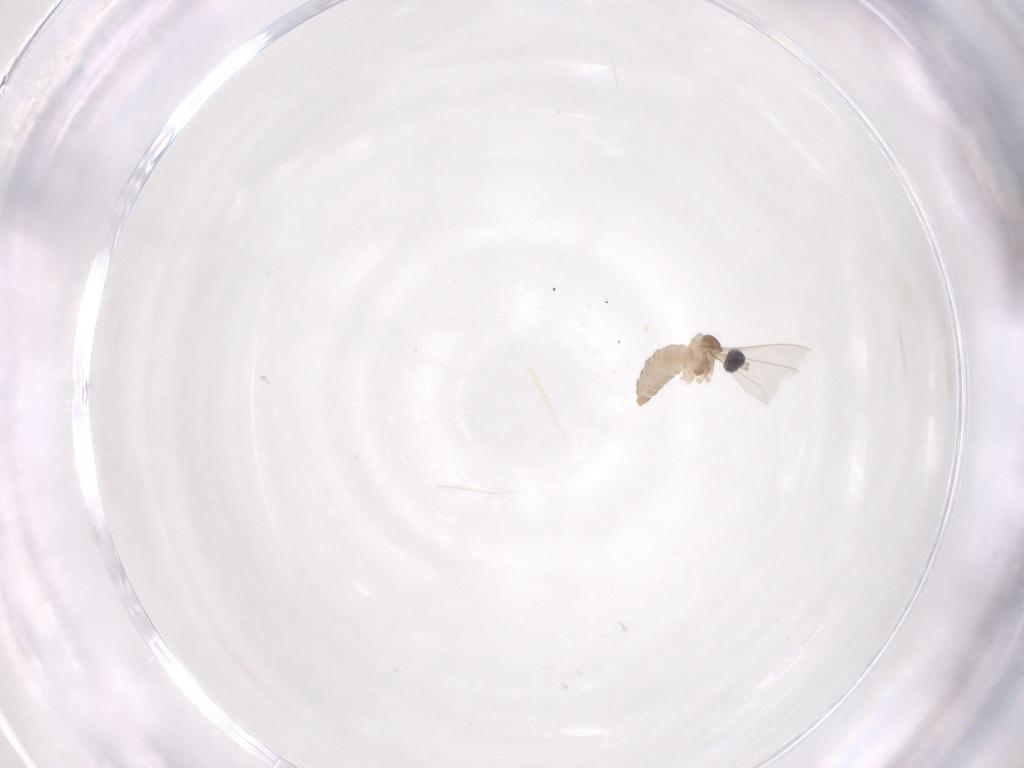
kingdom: Animalia
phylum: Arthropoda
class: Insecta
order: Diptera
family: Cecidomyiidae
